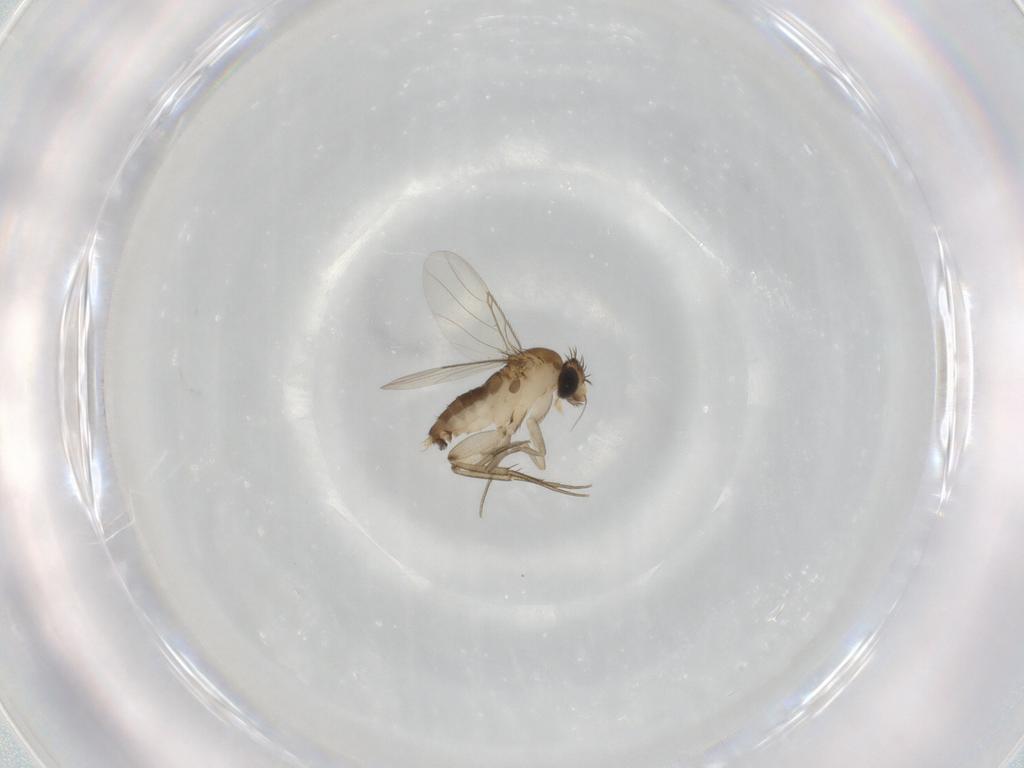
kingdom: Animalia
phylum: Arthropoda
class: Insecta
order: Diptera
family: Phoridae
